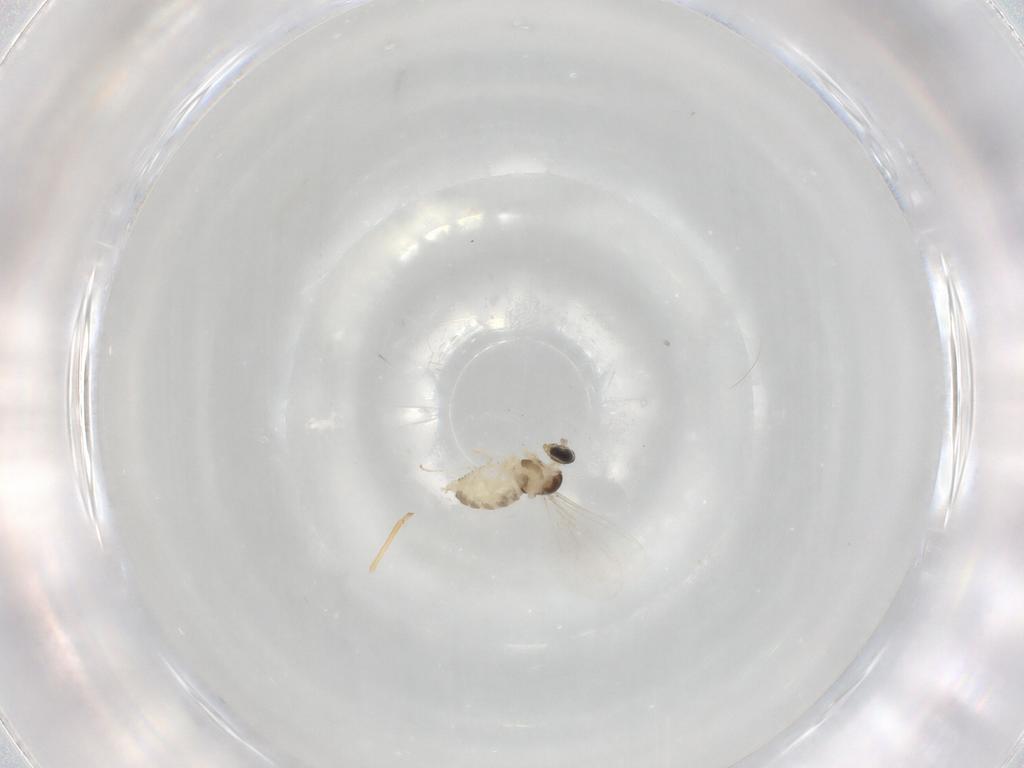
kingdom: Animalia
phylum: Arthropoda
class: Insecta
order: Diptera
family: Cecidomyiidae
